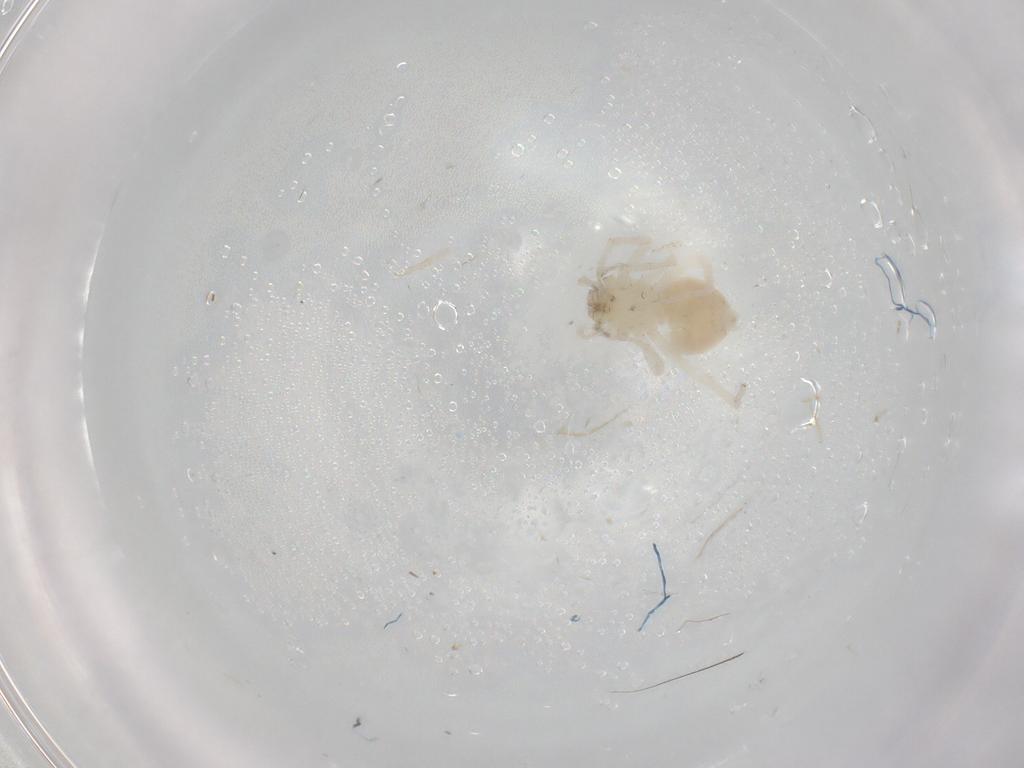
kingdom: Animalia
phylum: Arthropoda
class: Arachnida
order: Araneae
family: Anyphaenidae
